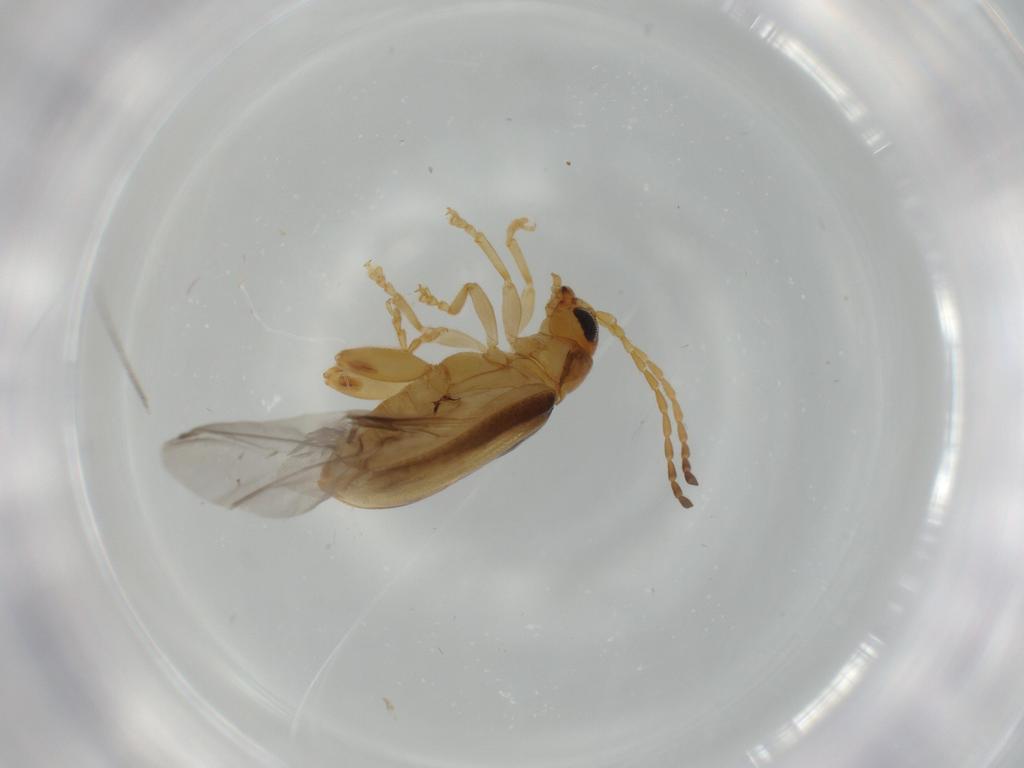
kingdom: Animalia
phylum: Arthropoda
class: Insecta
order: Coleoptera
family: Chrysomelidae
